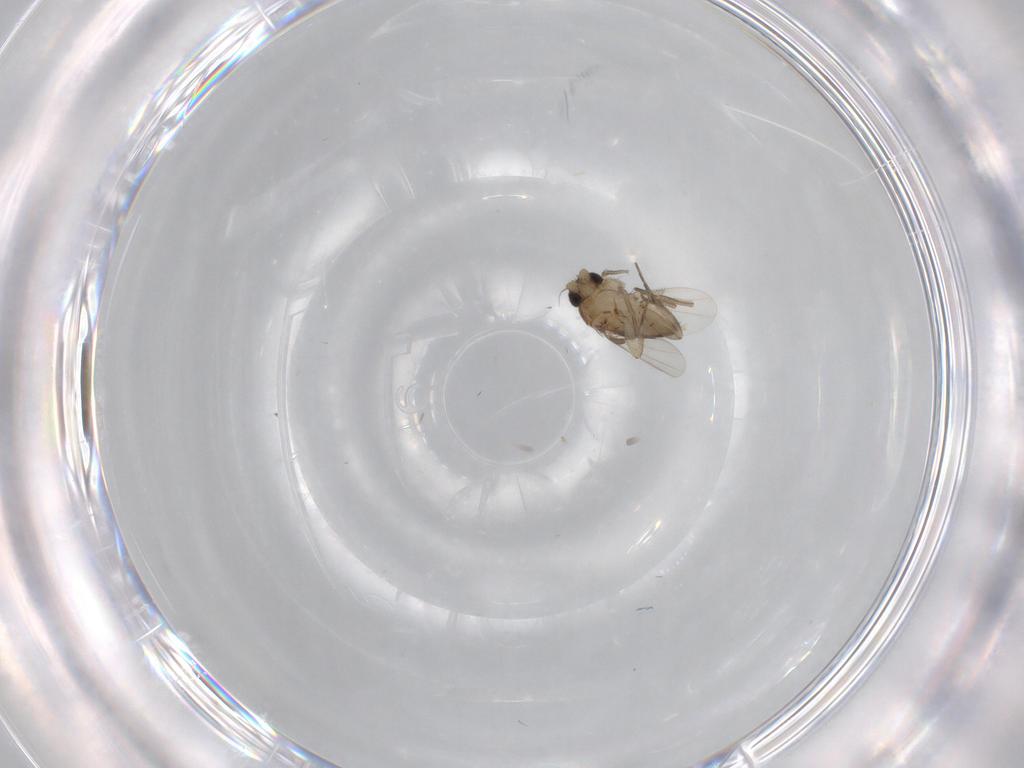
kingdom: Animalia
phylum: Arthropoda
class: Insecta
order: Diptera
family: Phoridae
